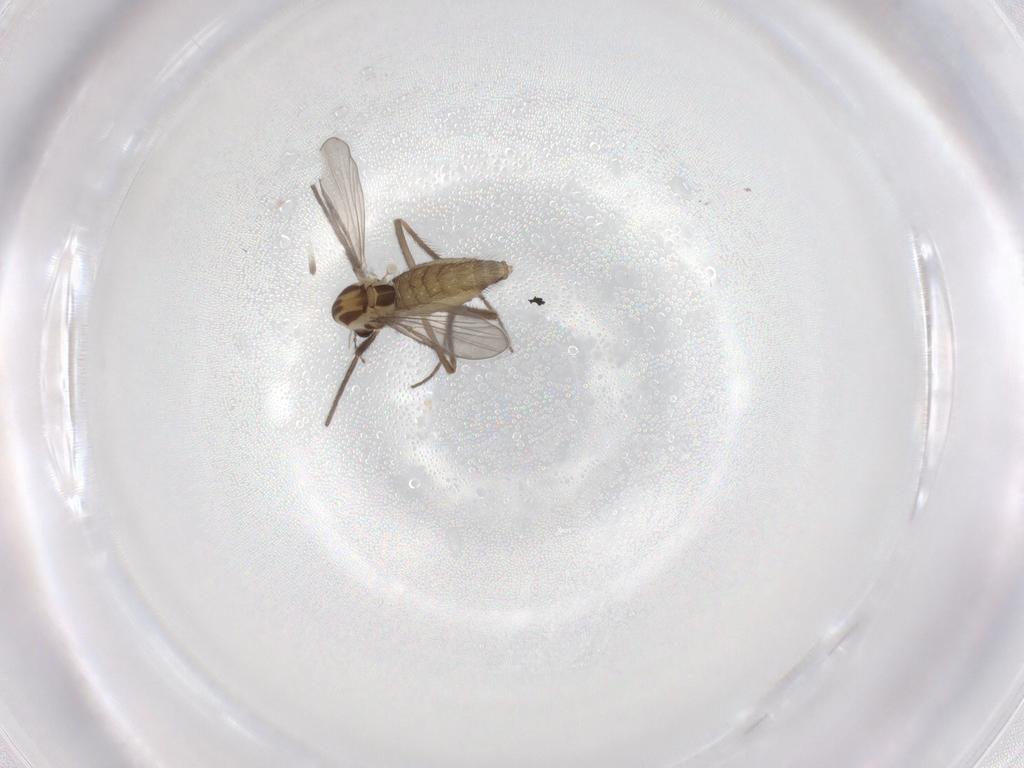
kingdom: Animalia
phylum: Arthropoda
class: Insecta
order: Diptera
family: Chironomidae
